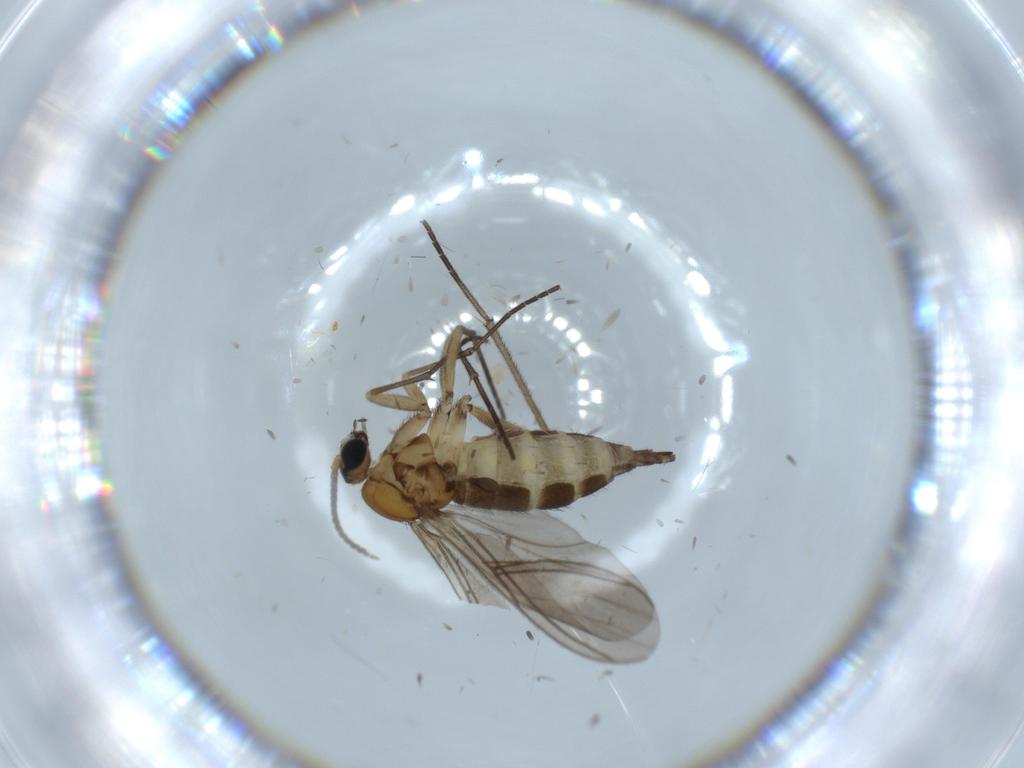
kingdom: Animalia
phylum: Arthropoda
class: Insecta
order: Diptera
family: Sciaridae
